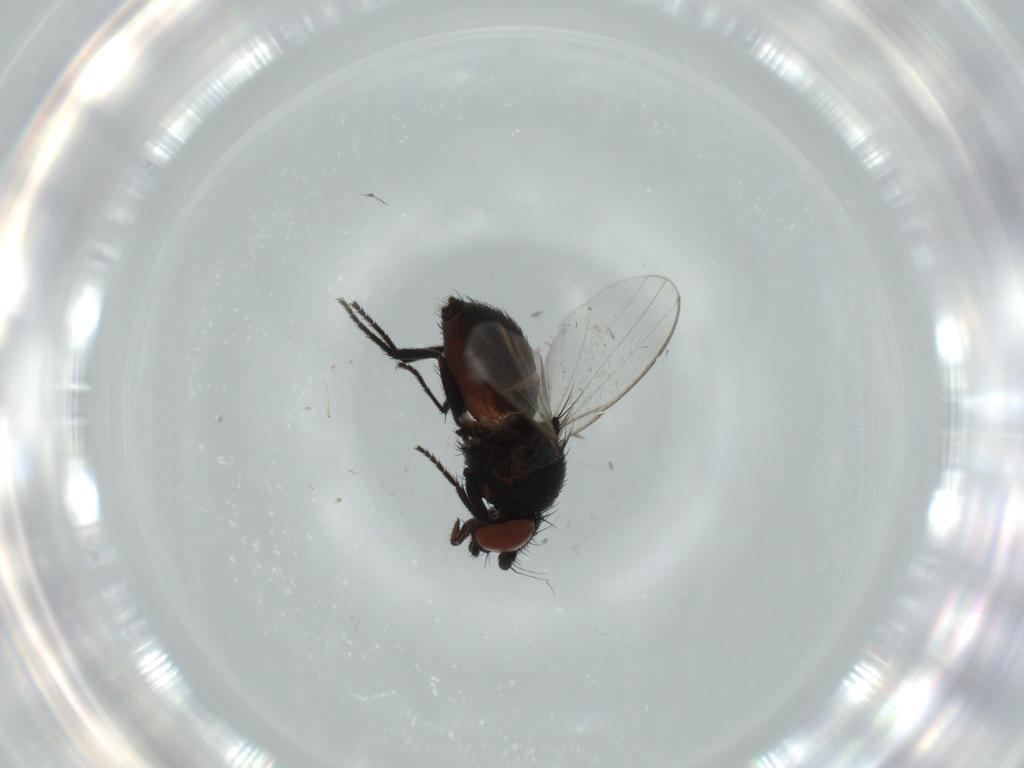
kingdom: Animalia
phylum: Arthropoda
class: Insecta
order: Diptera
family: Milichiidae
